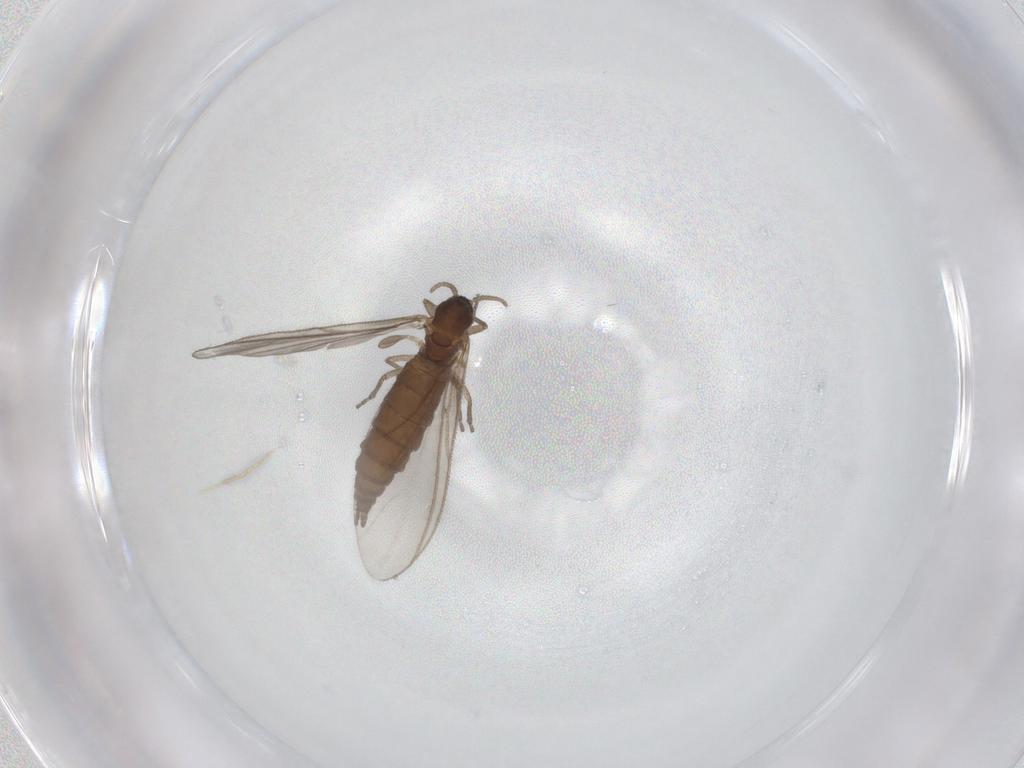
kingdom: Animalia
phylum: Arthropoda
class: Insecta
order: Diptera
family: Sciaridae
